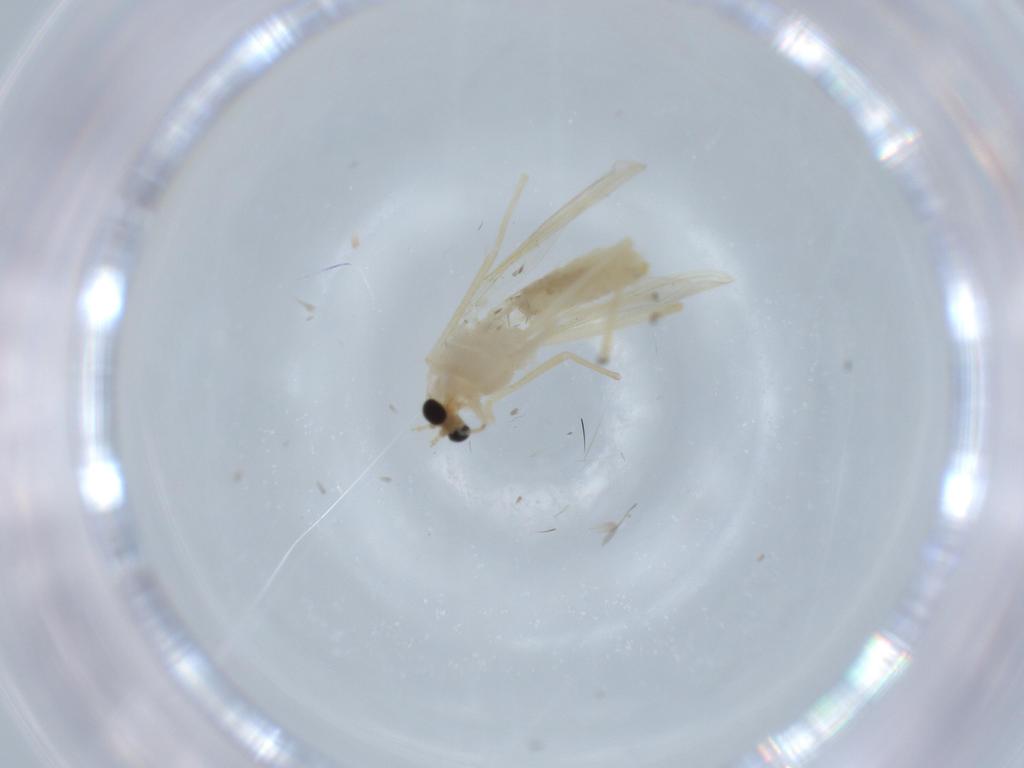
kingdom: Animalia
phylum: Arthropoda
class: Insecta
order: Diptera
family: Chironomidae
